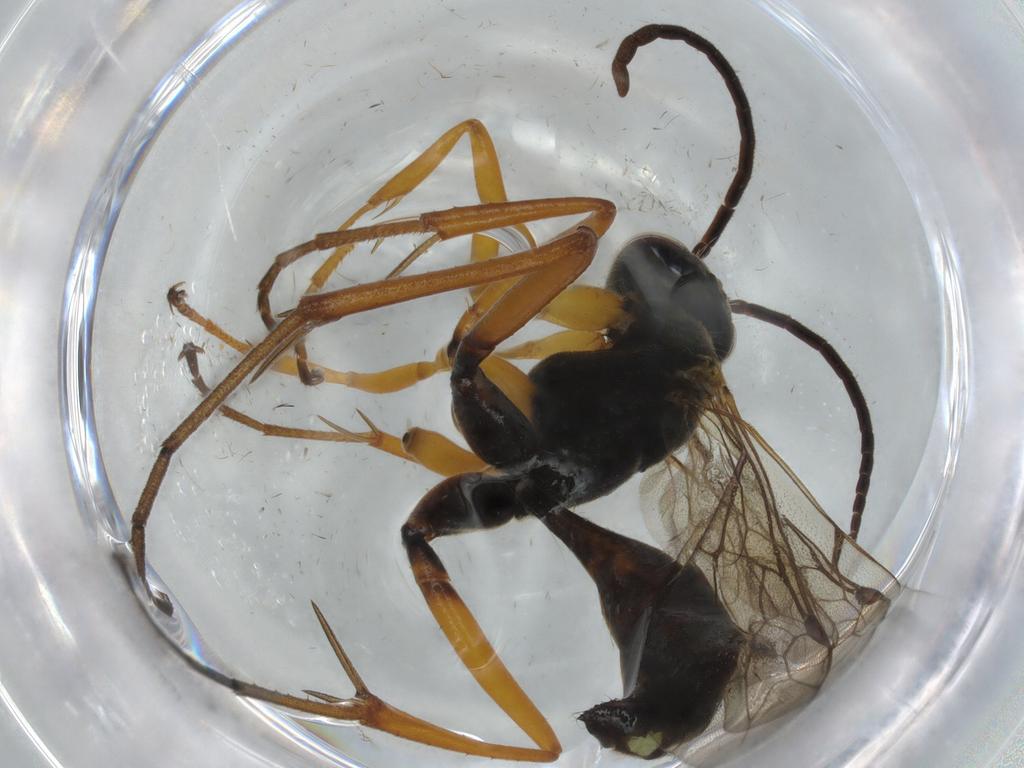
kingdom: Animalia
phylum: Arthropoda
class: Insecta
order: Hymenoptera
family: Pompilidae
